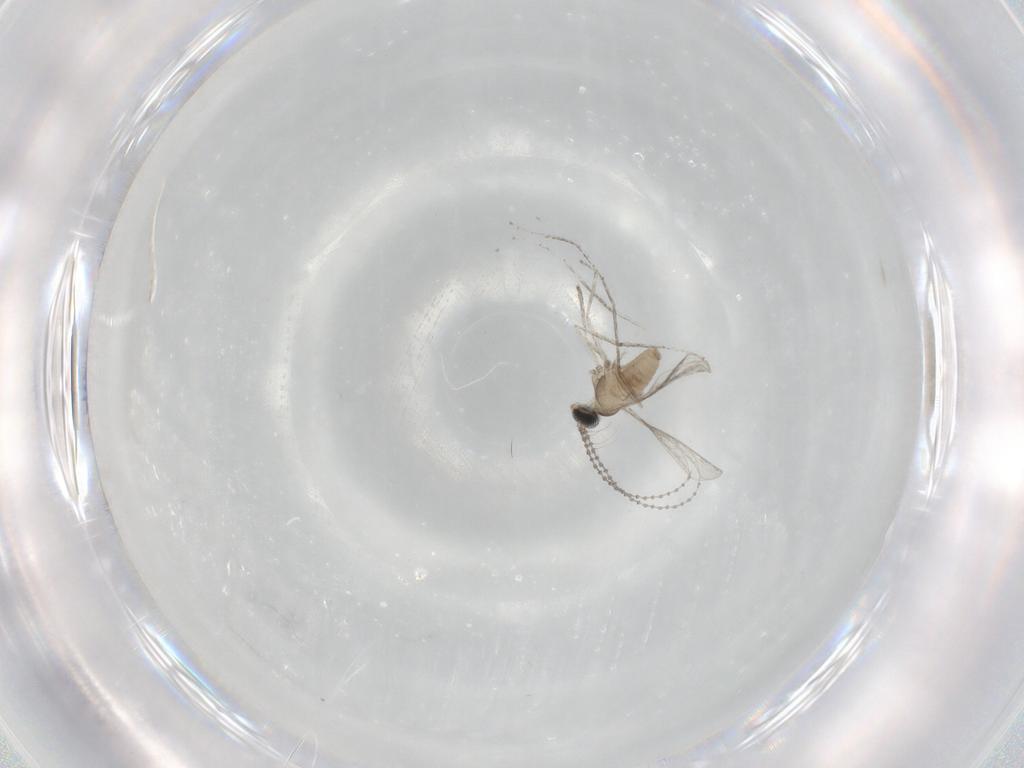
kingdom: Animalia
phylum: Arthropoda
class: Insecta
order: Diptera
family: Cecidomyiidae
